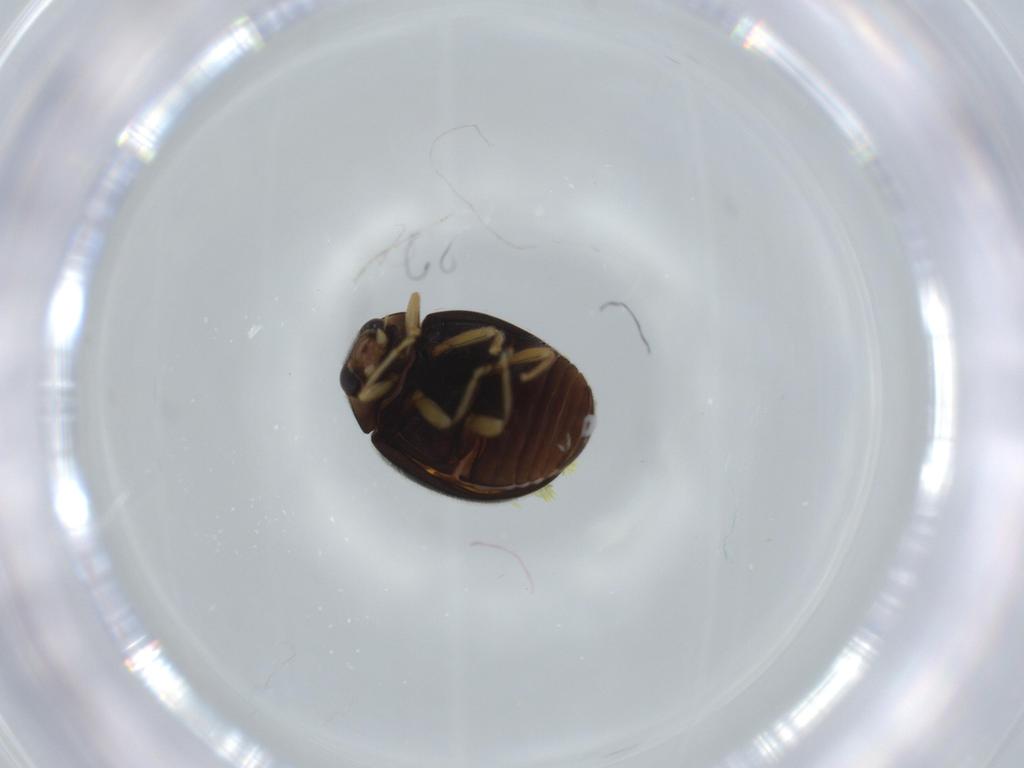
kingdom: Animalia
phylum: Arthropoda
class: Insecta
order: Coleoptera
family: Coccinellidae
